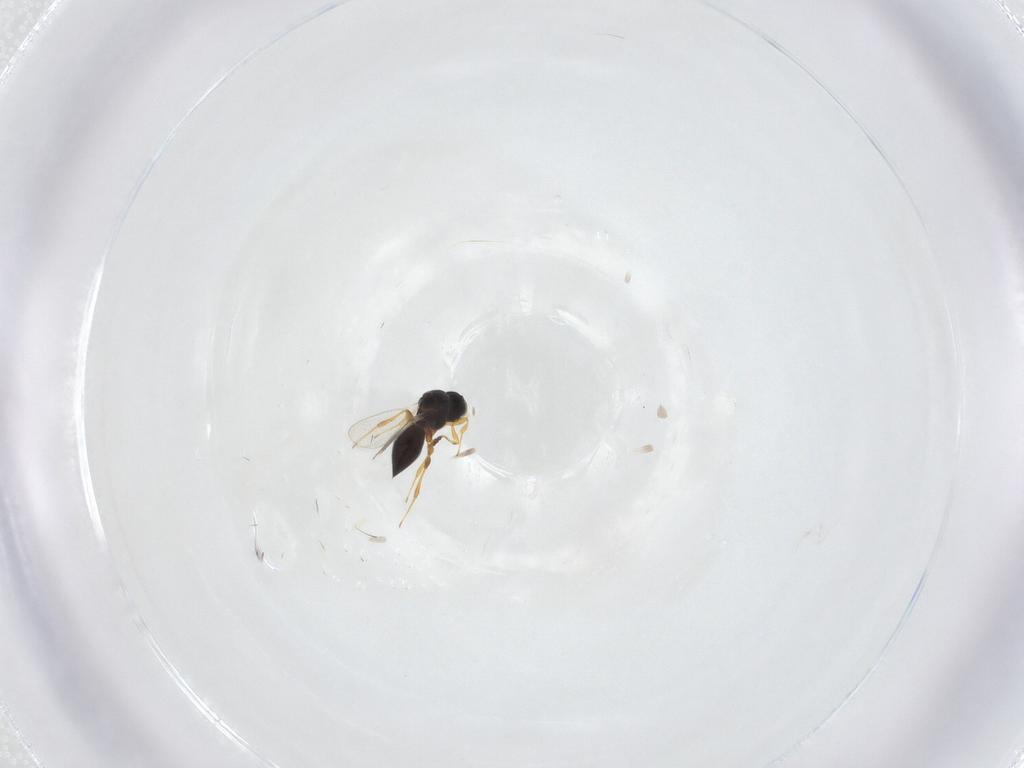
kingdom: Animalia
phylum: Arthropoda
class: Insecta
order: Hymenoptera
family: Platygastridae
